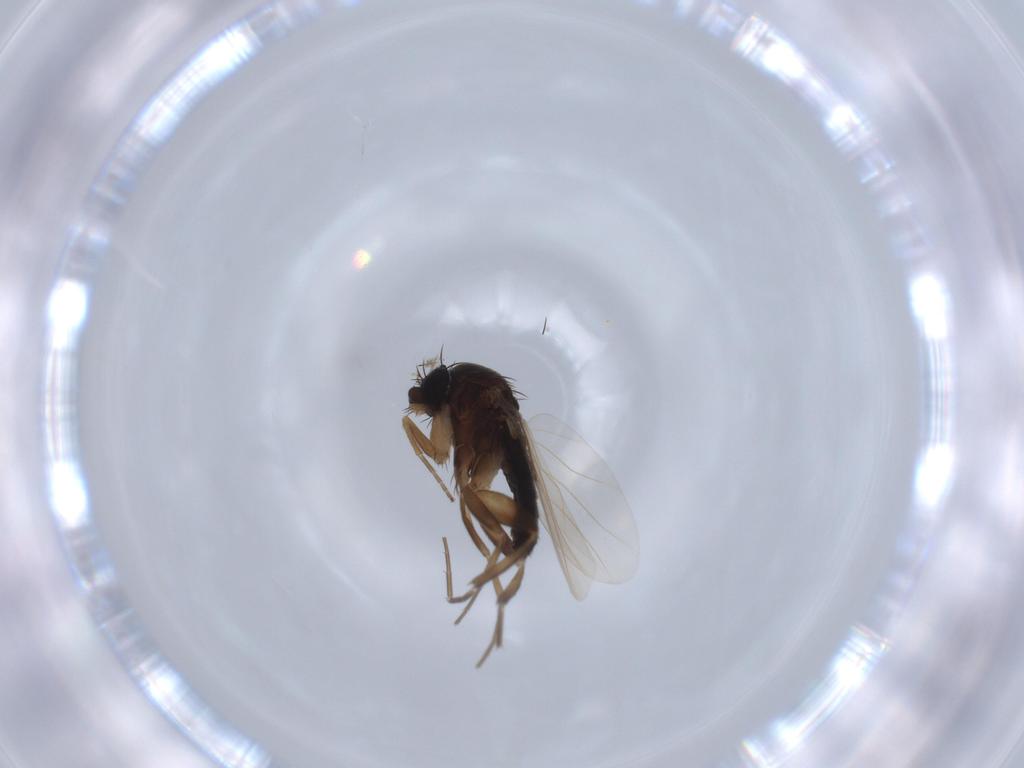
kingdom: Animalia
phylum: Arthropoda
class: Insecta
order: Diptera
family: Phoridae
